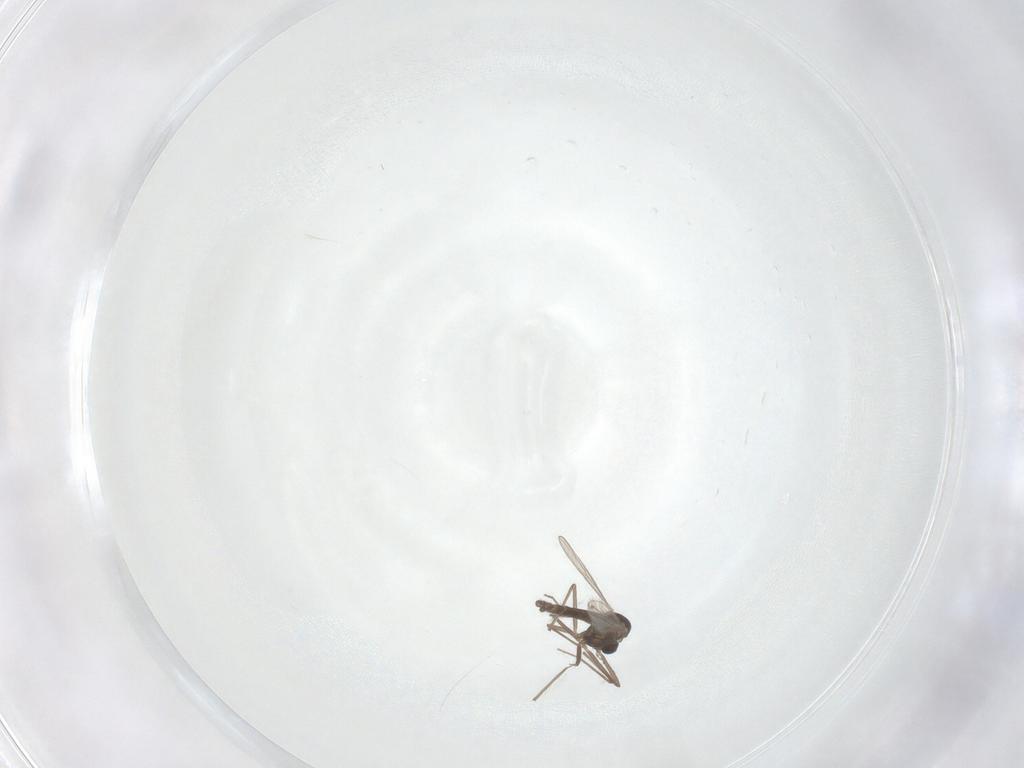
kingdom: Animalia
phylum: Arthropoda
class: Insecta
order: Diptera
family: Chironomidae
